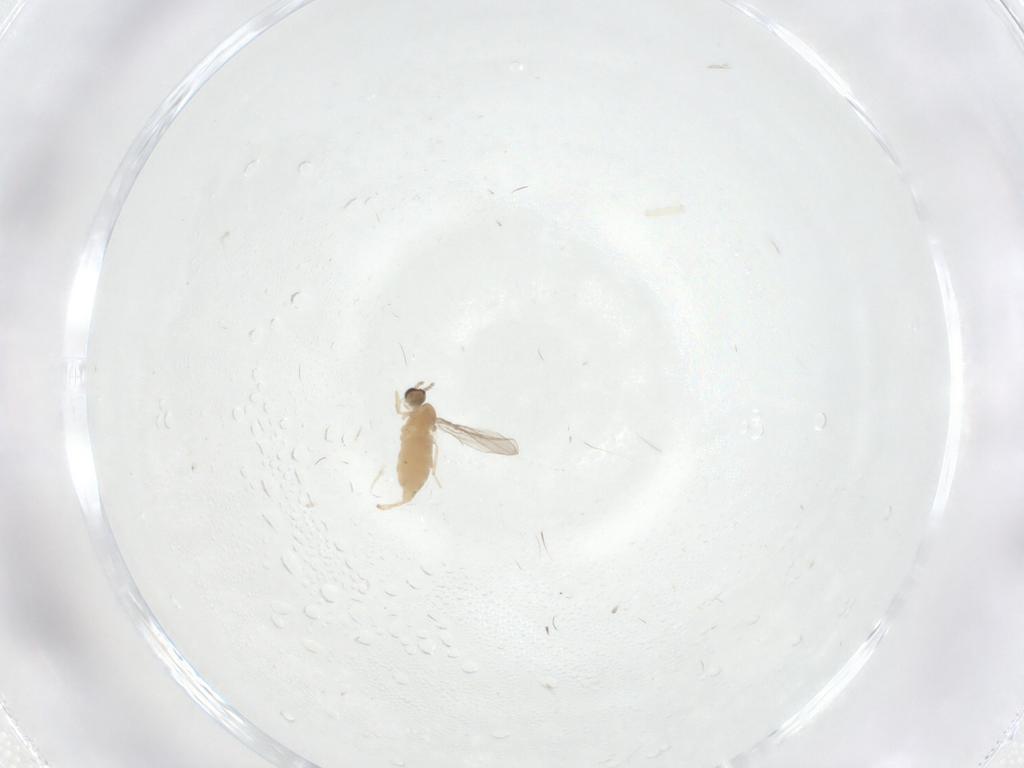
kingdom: Animalia
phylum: Arthropoda
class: Insecta
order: Diptera
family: Cecidomyiidae
